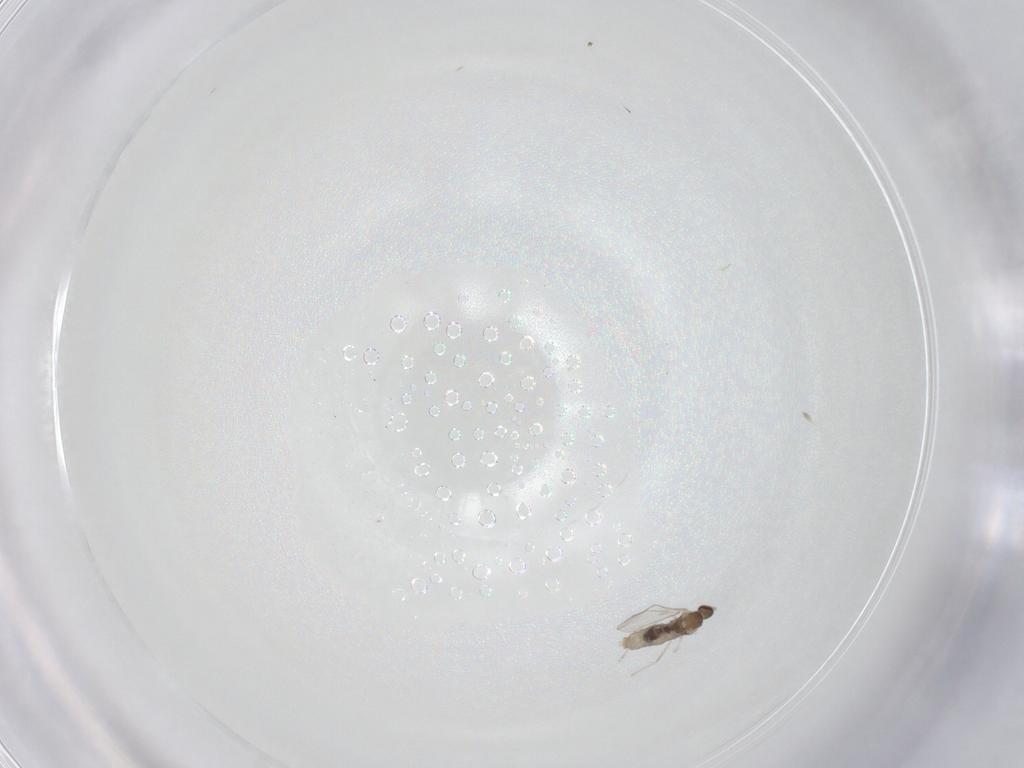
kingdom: Animalia
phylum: Arthropoda
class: Insecta
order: Diptera
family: Cecidomyiidae
